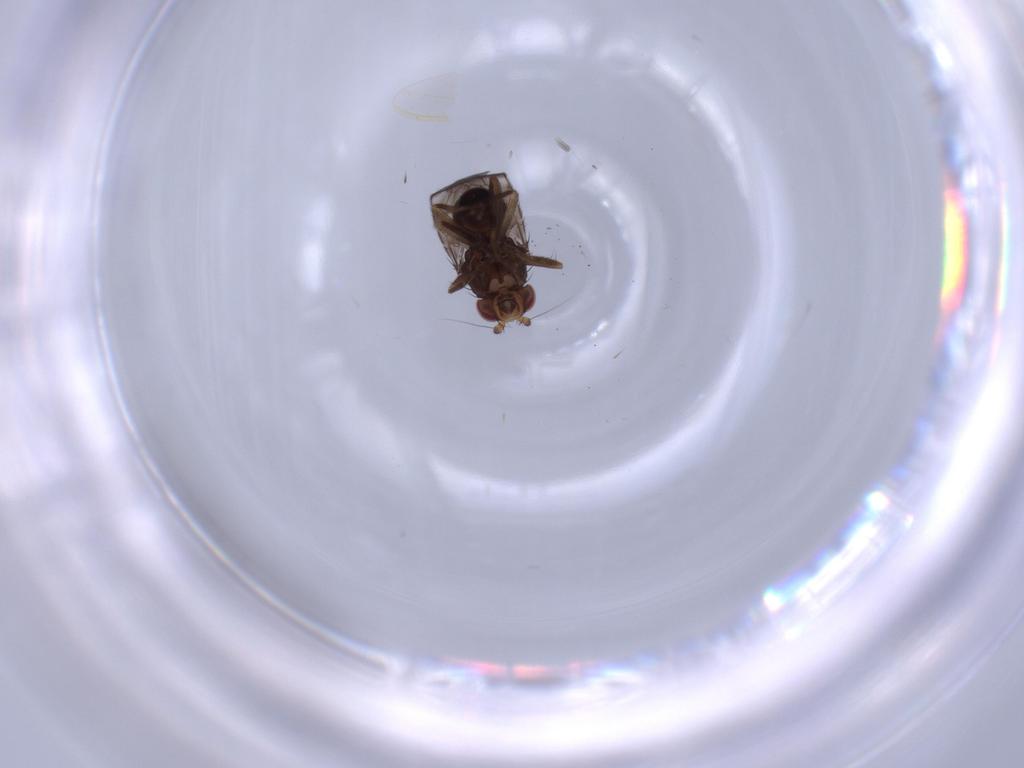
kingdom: Animalia
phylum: Arthropoda
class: Insecta
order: Diptera
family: Sphaeroceridae
